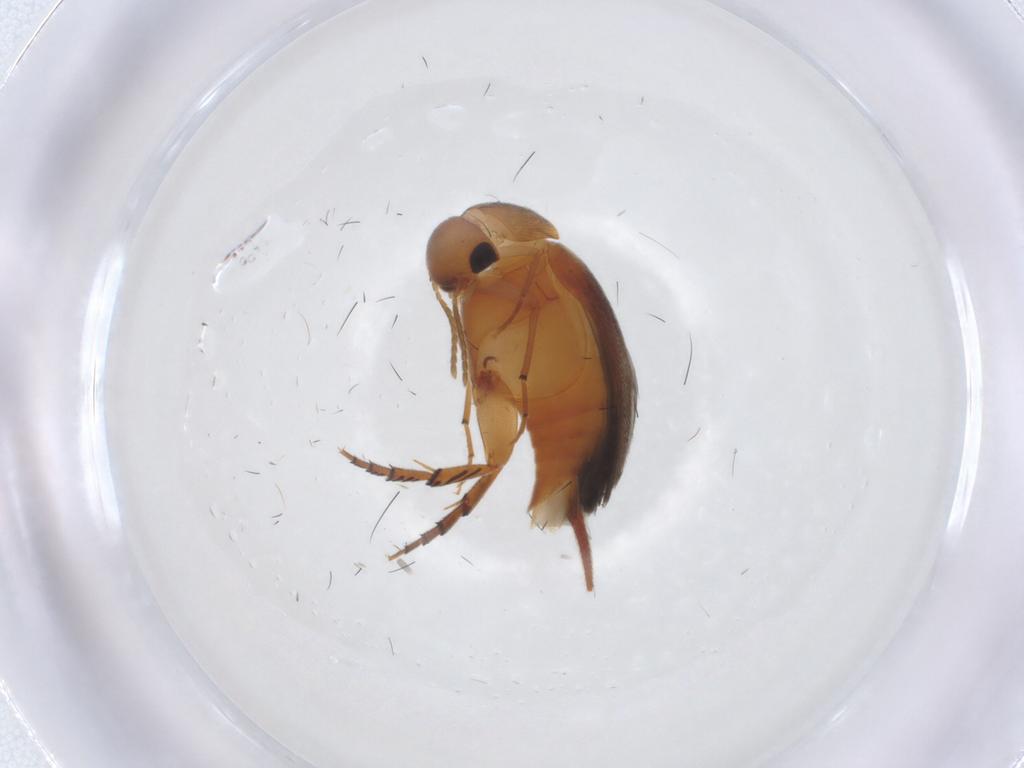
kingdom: Animalia
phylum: Arthropoda
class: Insecta
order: Coleoptera
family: Mordellidae
